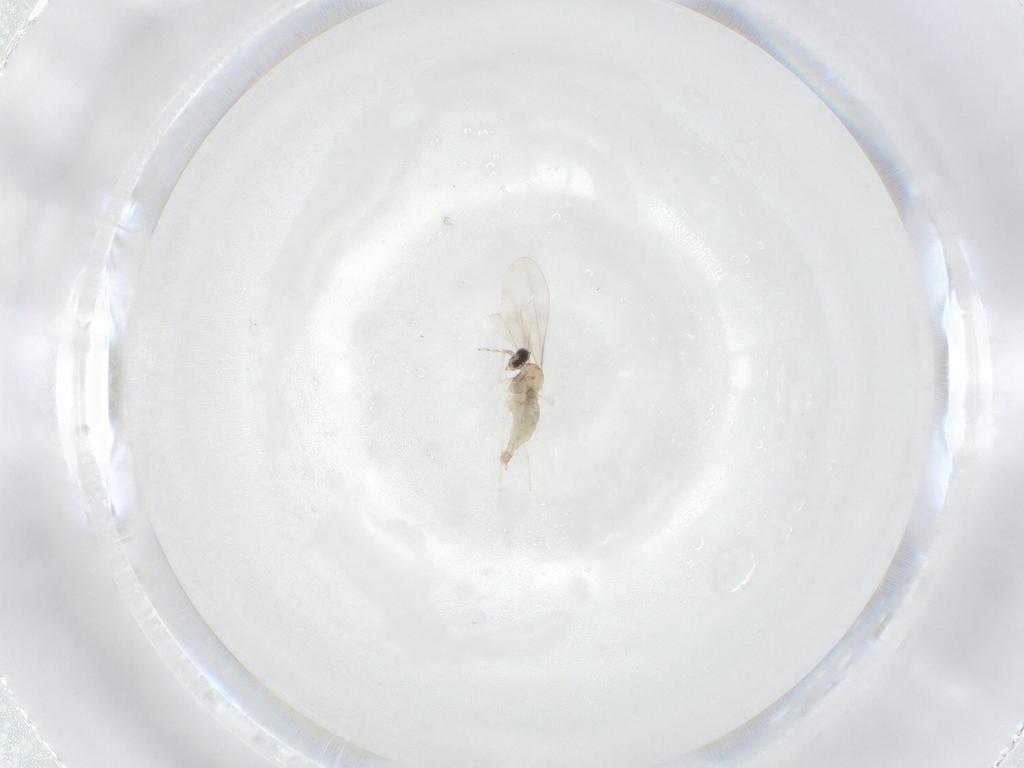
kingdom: Animalia
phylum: Arthropoda
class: Insecta
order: Diptera
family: Cecidomyiidae
